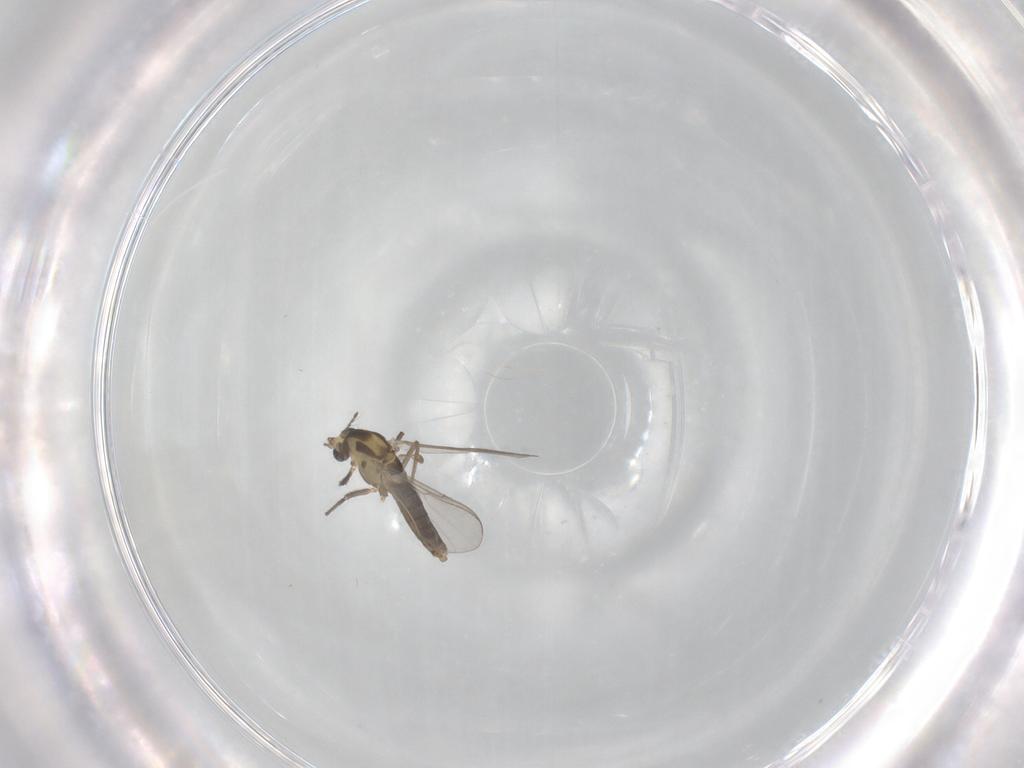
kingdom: Animalia
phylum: Arthropoda
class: Insecta
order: Diptera
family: Chironomidae
